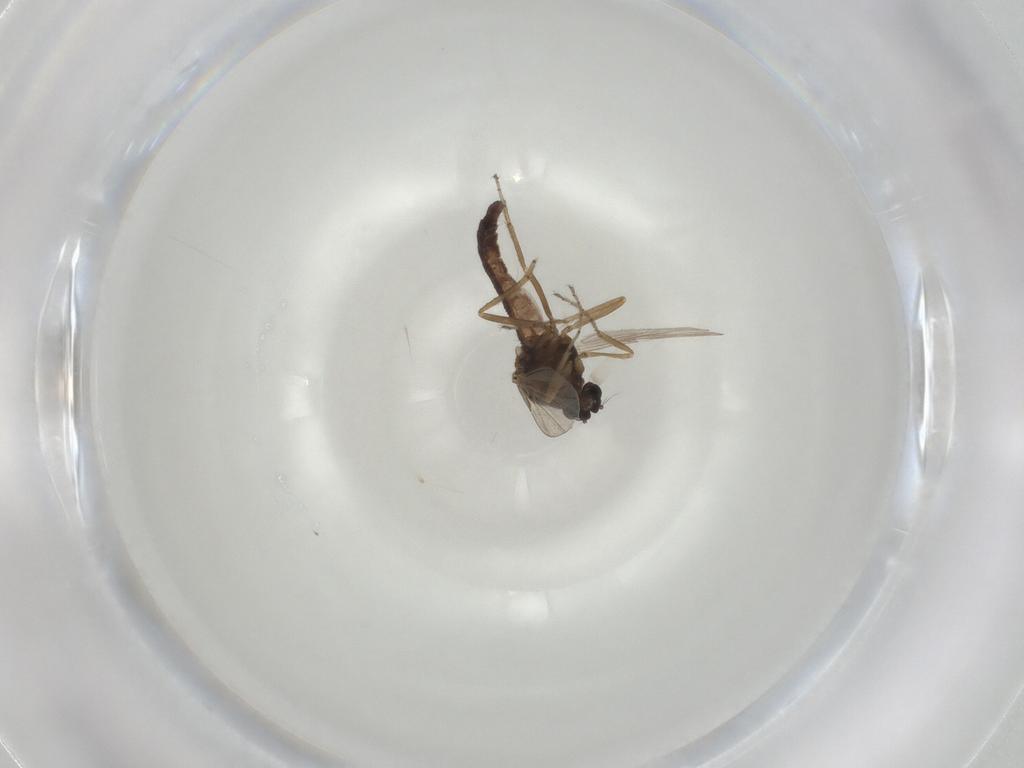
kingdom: Animalia
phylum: Arthropoda
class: Insecta
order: Diptera
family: Ceratopogonidae
